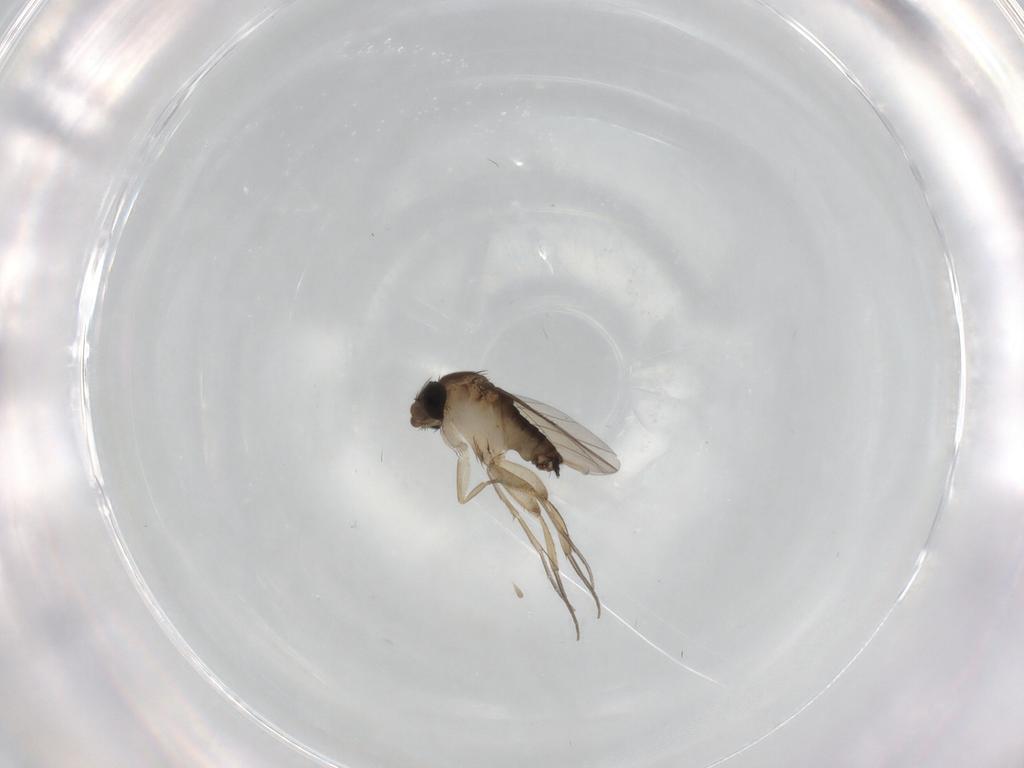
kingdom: Animalia
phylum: Arthropoda
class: Insecta
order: Diptera
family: Phoridae
